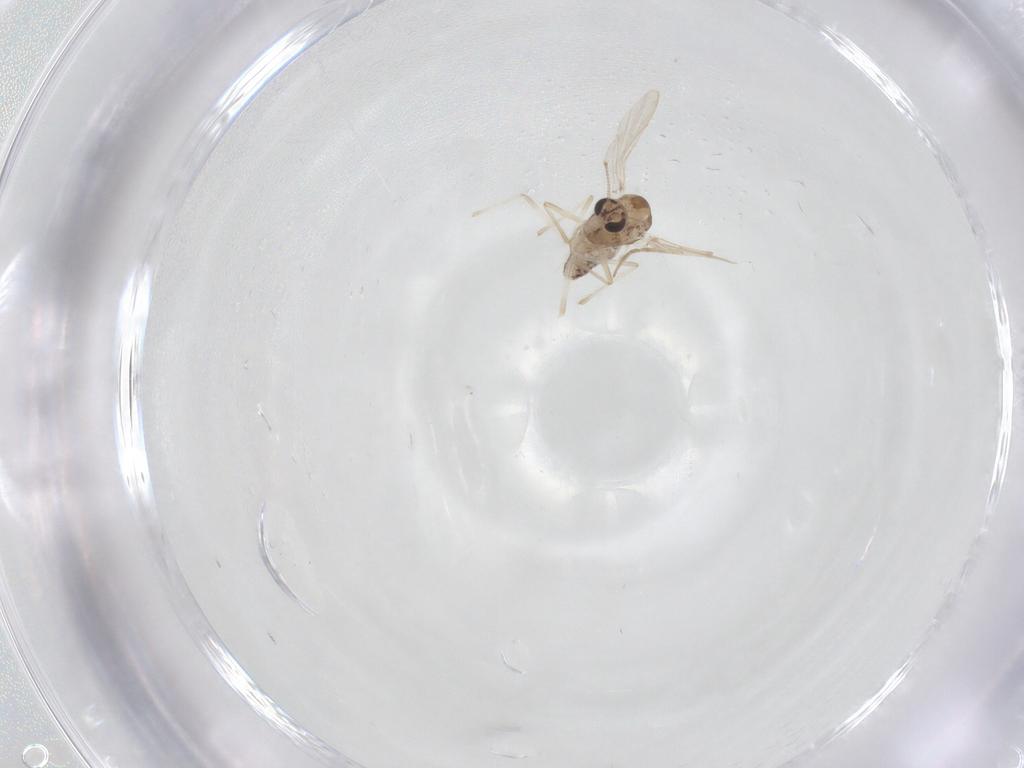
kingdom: Animalia
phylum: Arthropoda
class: Insecta
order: Diptera
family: Chironomidae
